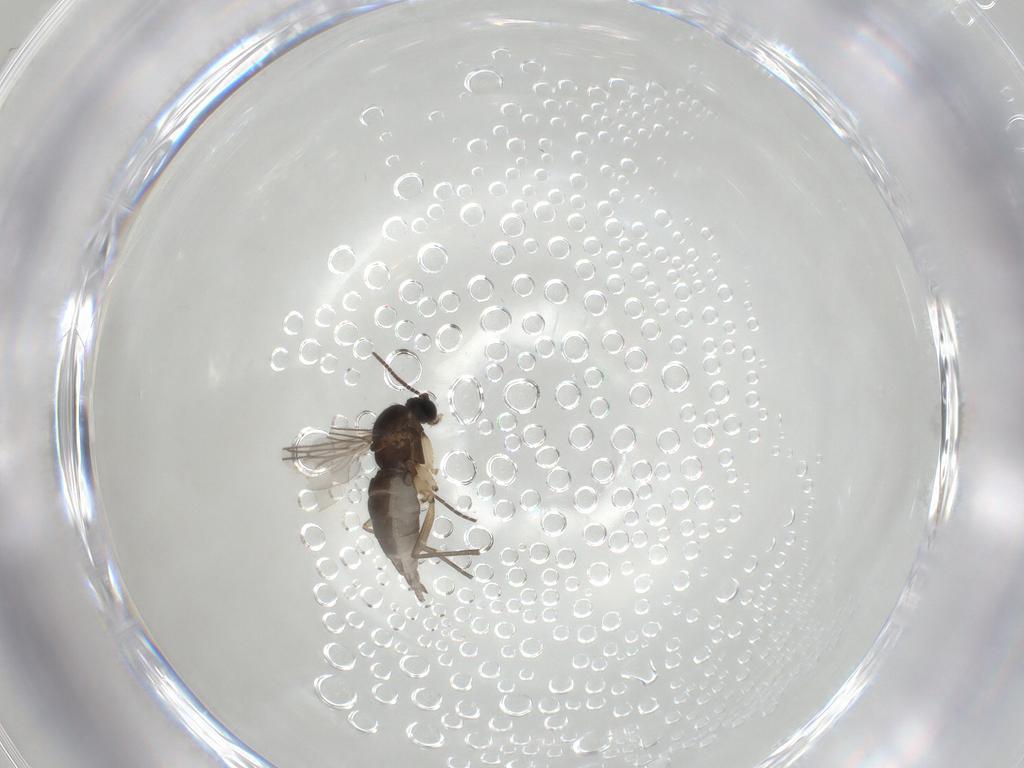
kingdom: Animalia
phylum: Arthropoda
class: Insecta
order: Diptera
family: Sciaridae
